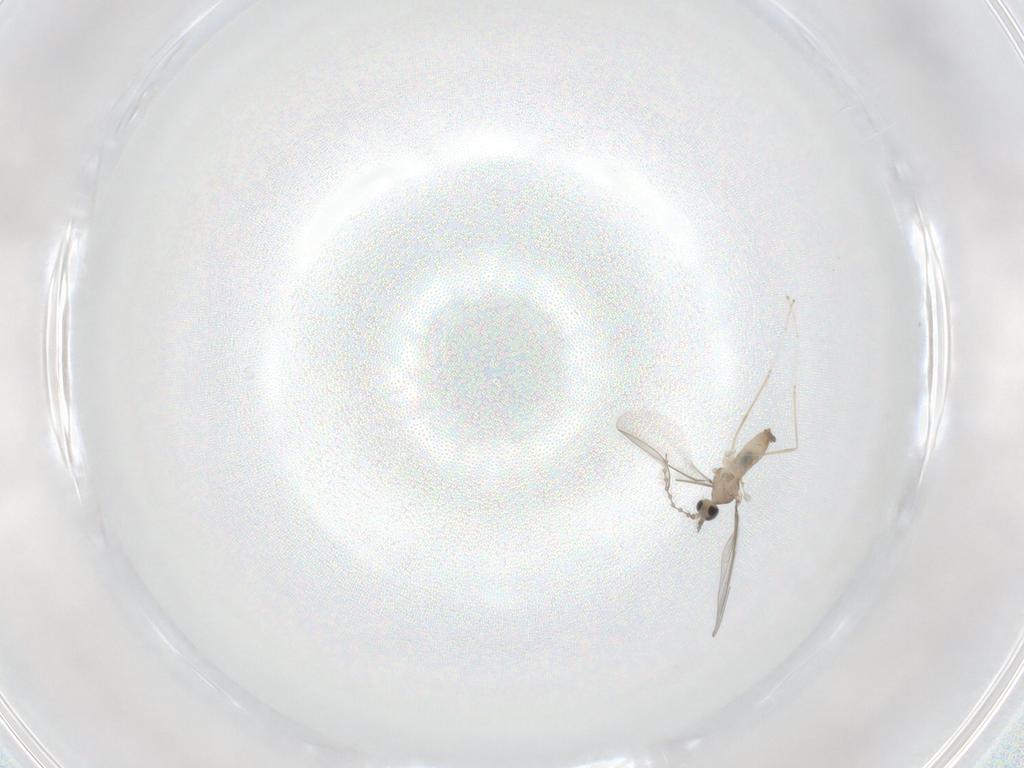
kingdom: Animalia
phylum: Arthropoda
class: Insecta
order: Diptera
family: Cecidomyiidae
